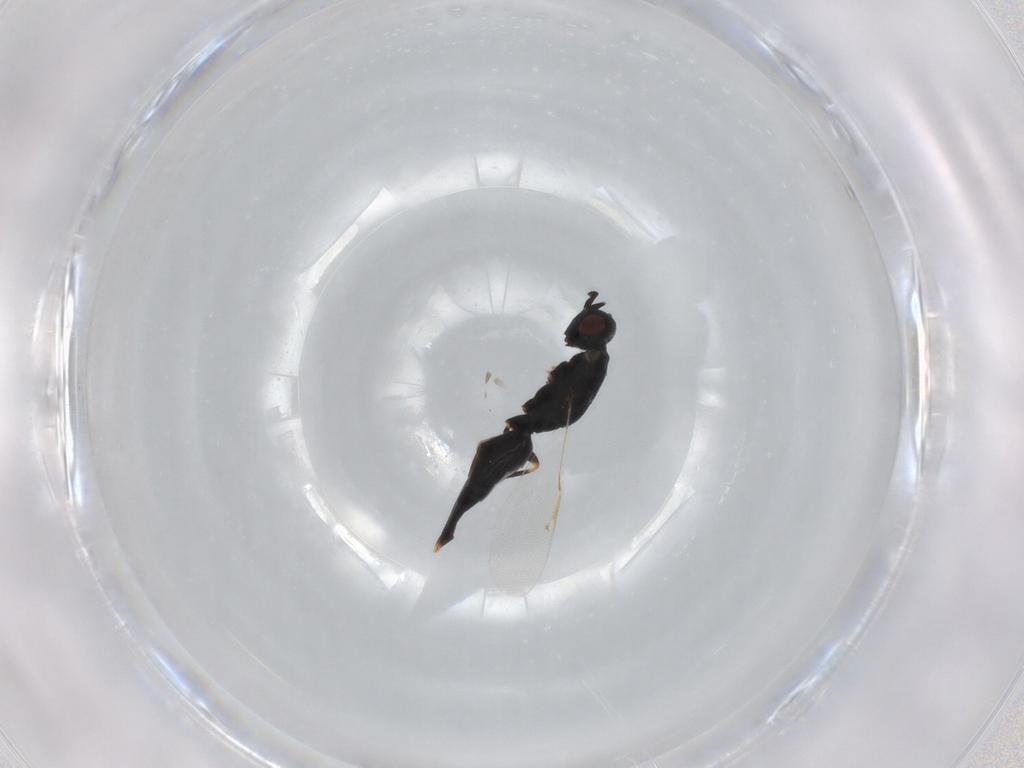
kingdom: Animalia
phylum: Arthropoda
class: Insecta
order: Hymenoptera
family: Eurytomidae
